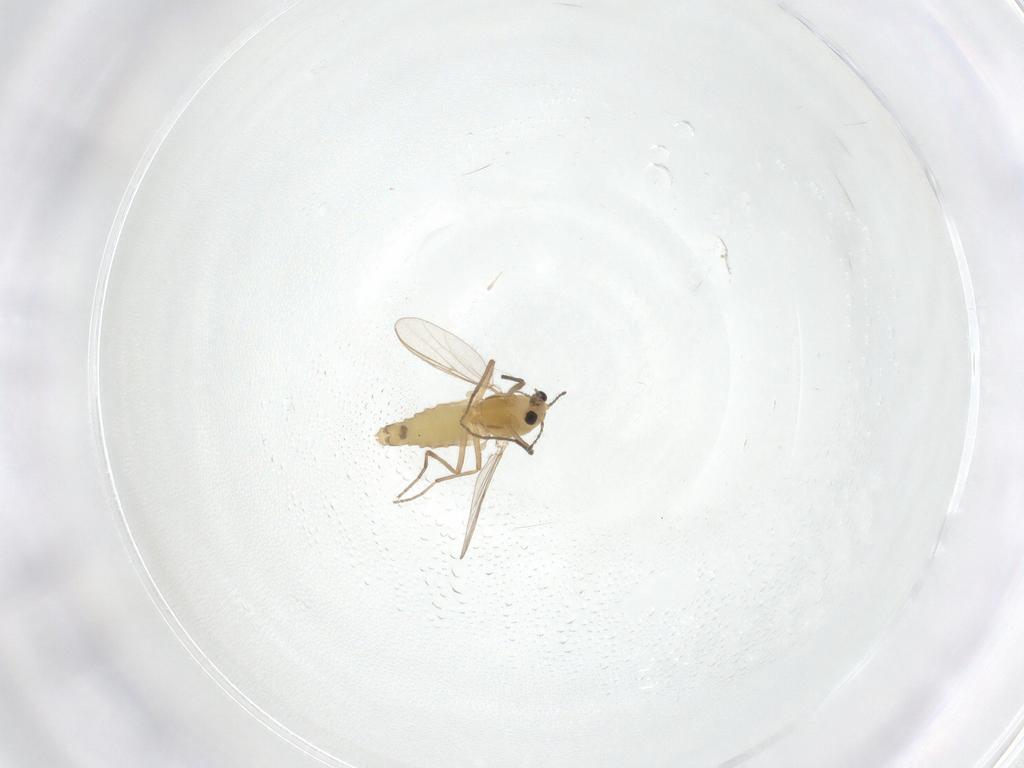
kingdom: Animalia
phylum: Arthropoda
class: Insecta
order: Diptera
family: Chironomidae
